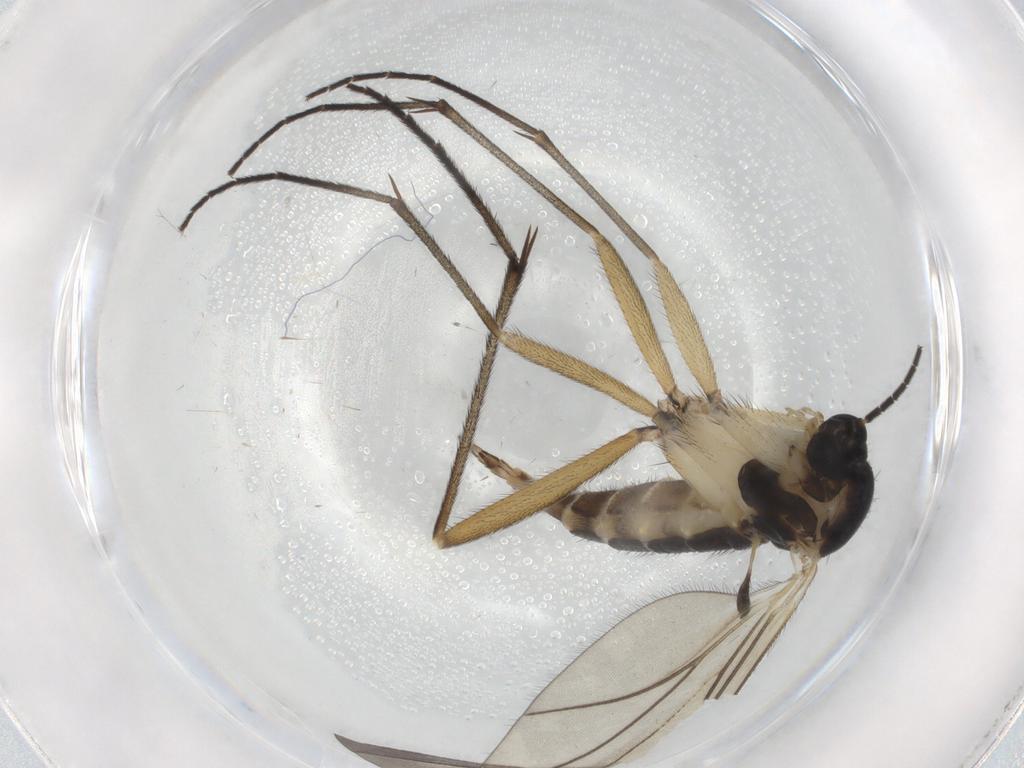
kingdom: Animalia
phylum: Arthropoda
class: Insecta
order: Diptera
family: Sciaridae
